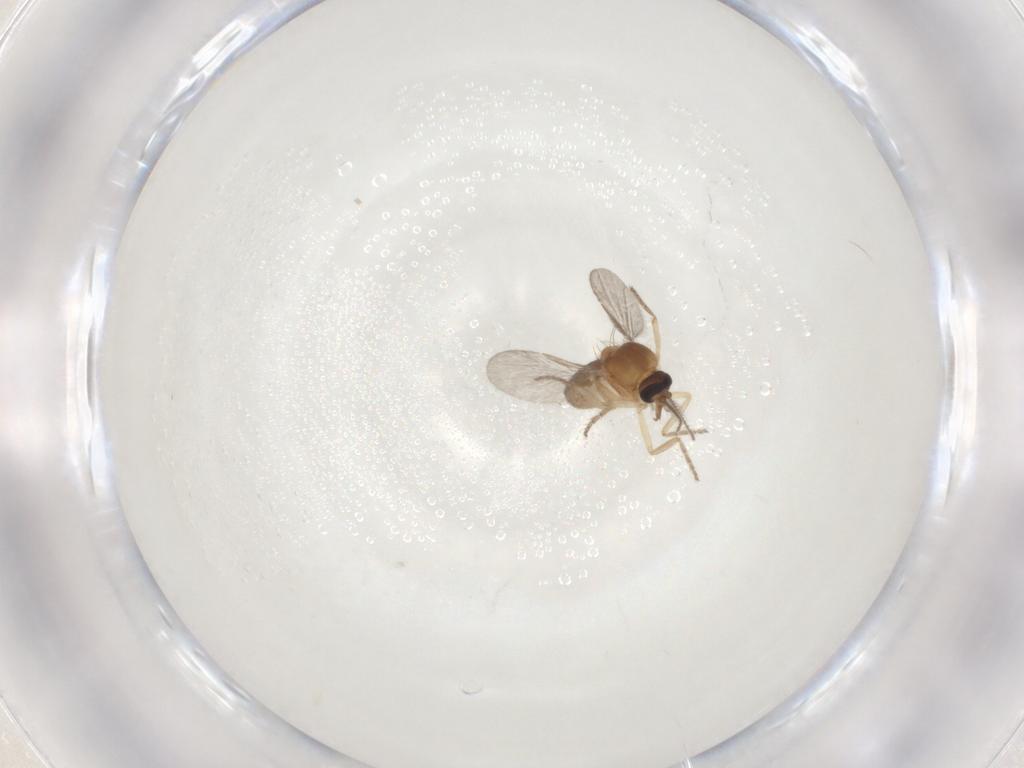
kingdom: Animalia
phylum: Arthropoda
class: Insecta
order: Diptera
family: Ceratopogonidae
